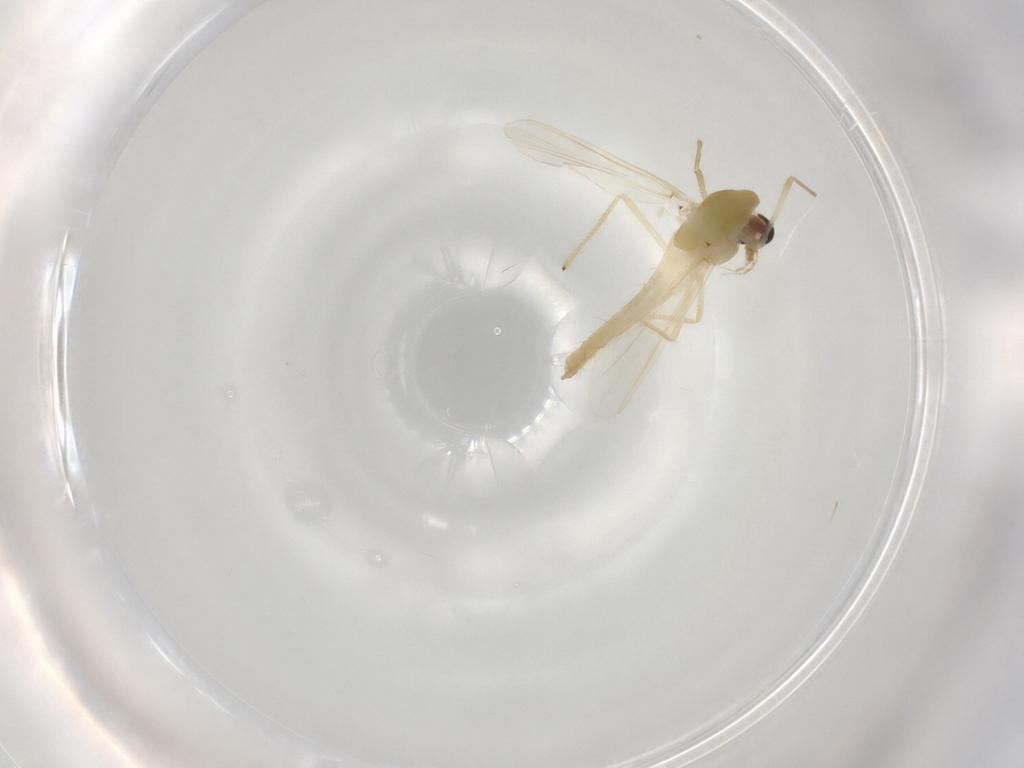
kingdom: Animalia
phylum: Arthropoda
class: Insecta
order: Diptera
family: Chironomidae
